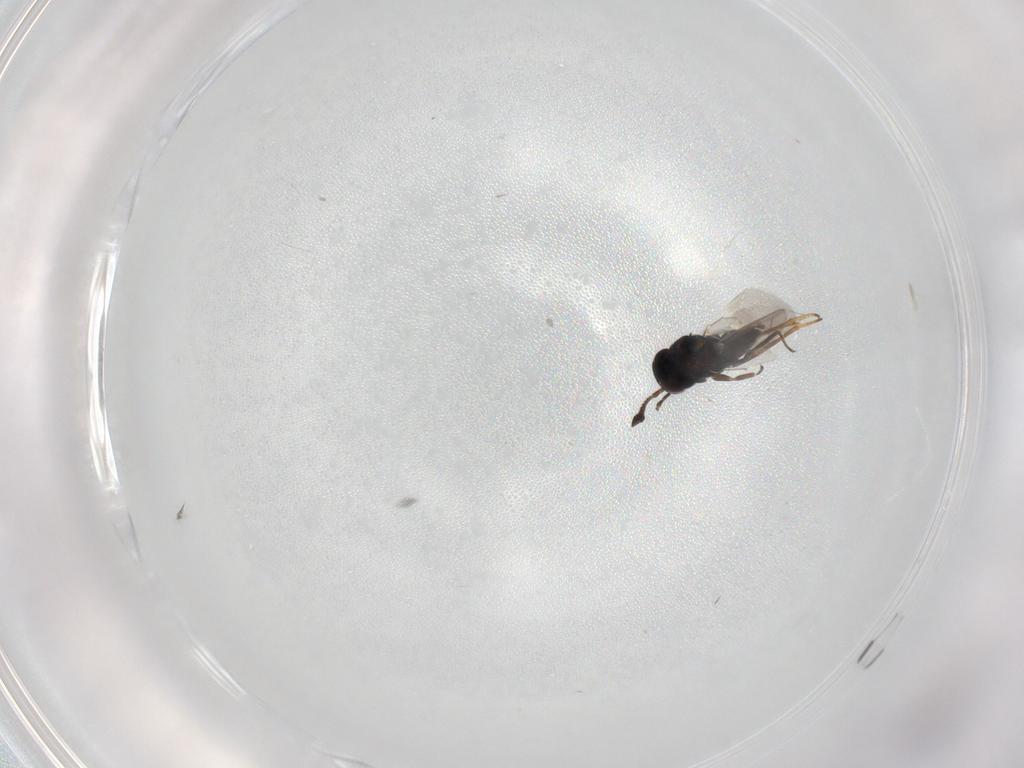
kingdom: Animalia
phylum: Arthropoda
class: Insecta
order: Hymenoptera
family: Encyrtidae
